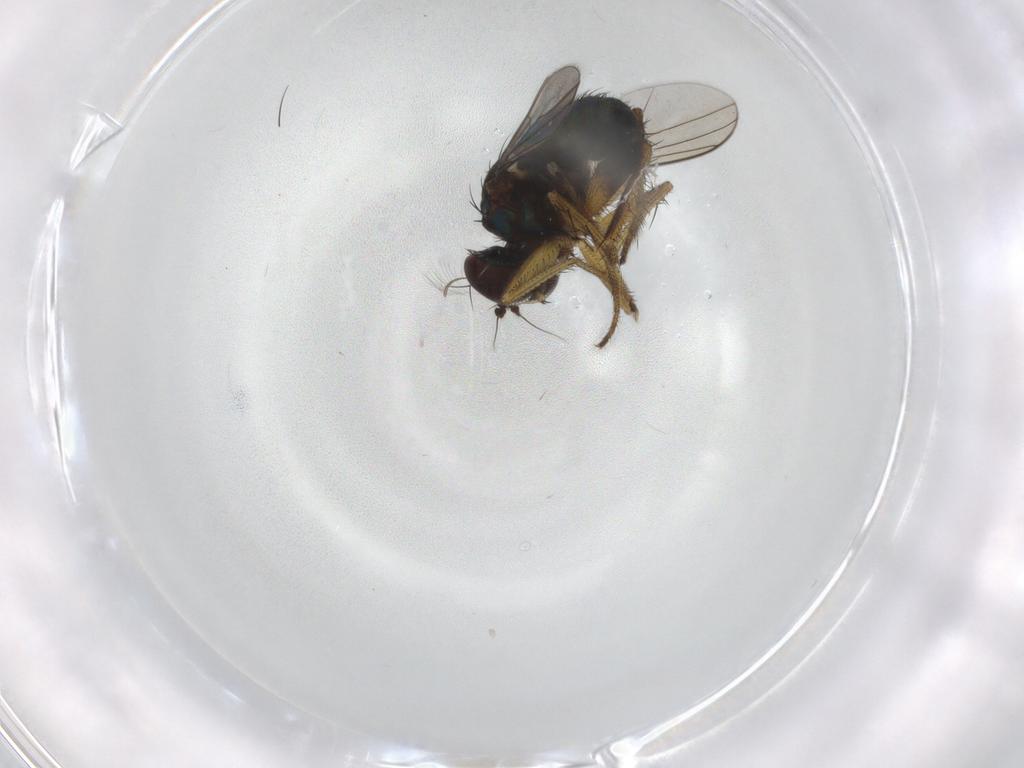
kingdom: Animalia
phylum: Arthropoda
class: Insecta
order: Diptera
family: Dolichopodidae
